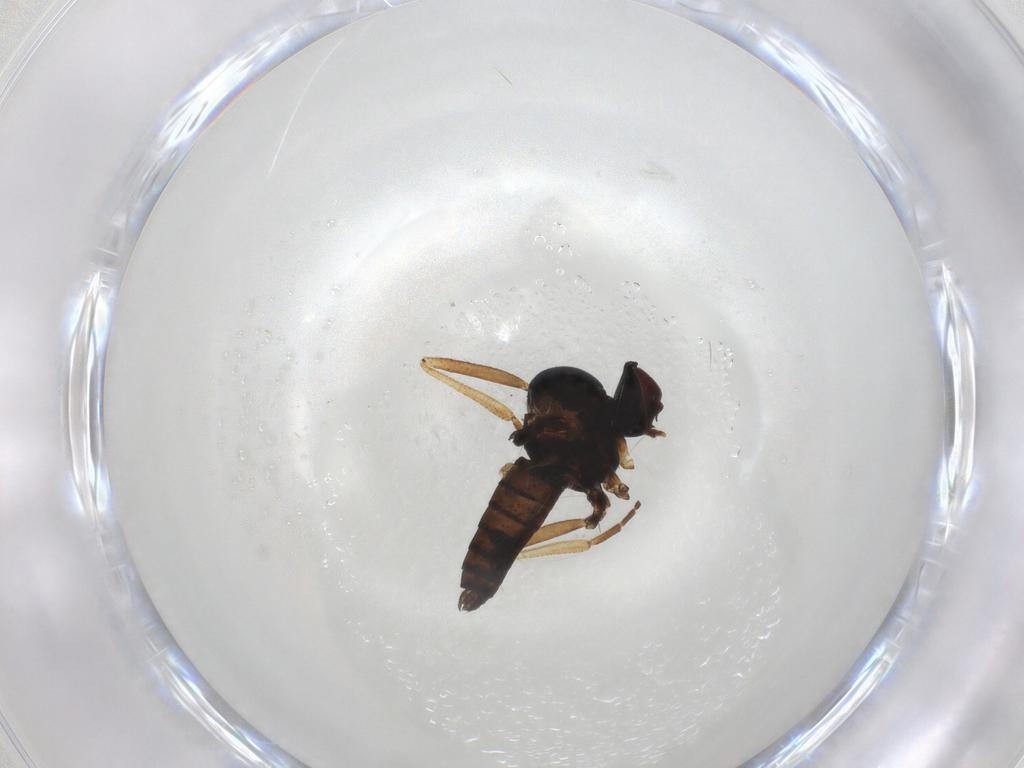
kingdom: Animalia
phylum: Arthropoda
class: Insecta
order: Diptera
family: Hybotidae
